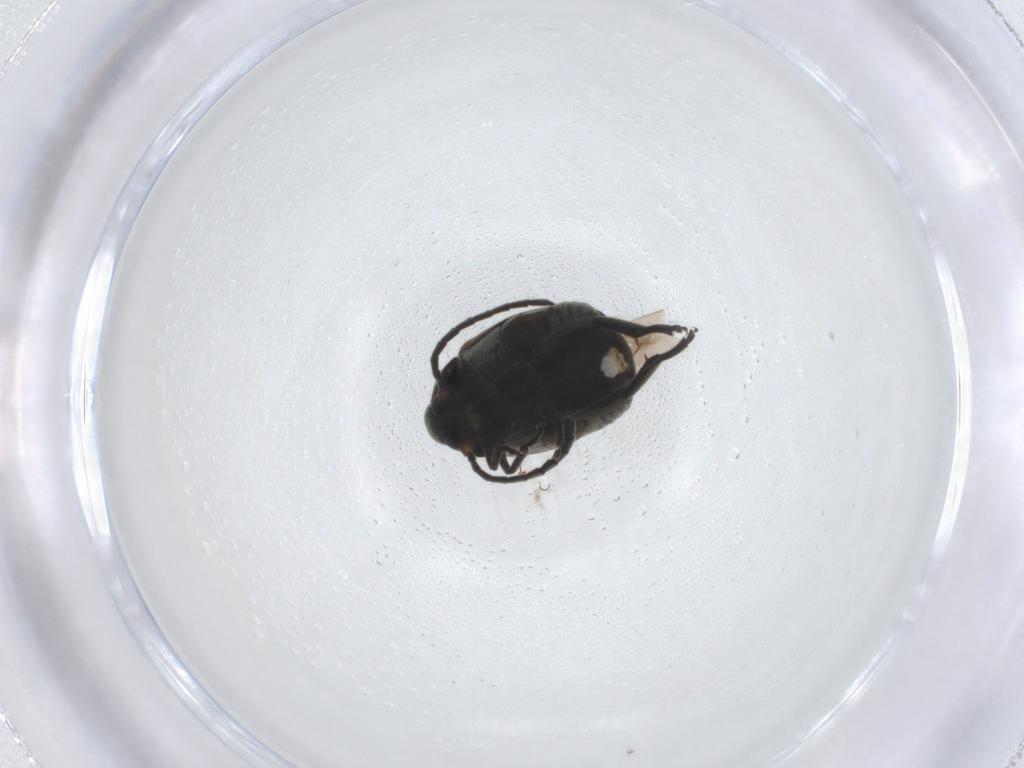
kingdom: Animalia
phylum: Arthropoda
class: Insecta
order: Coleoptera
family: Chrysomelidae
